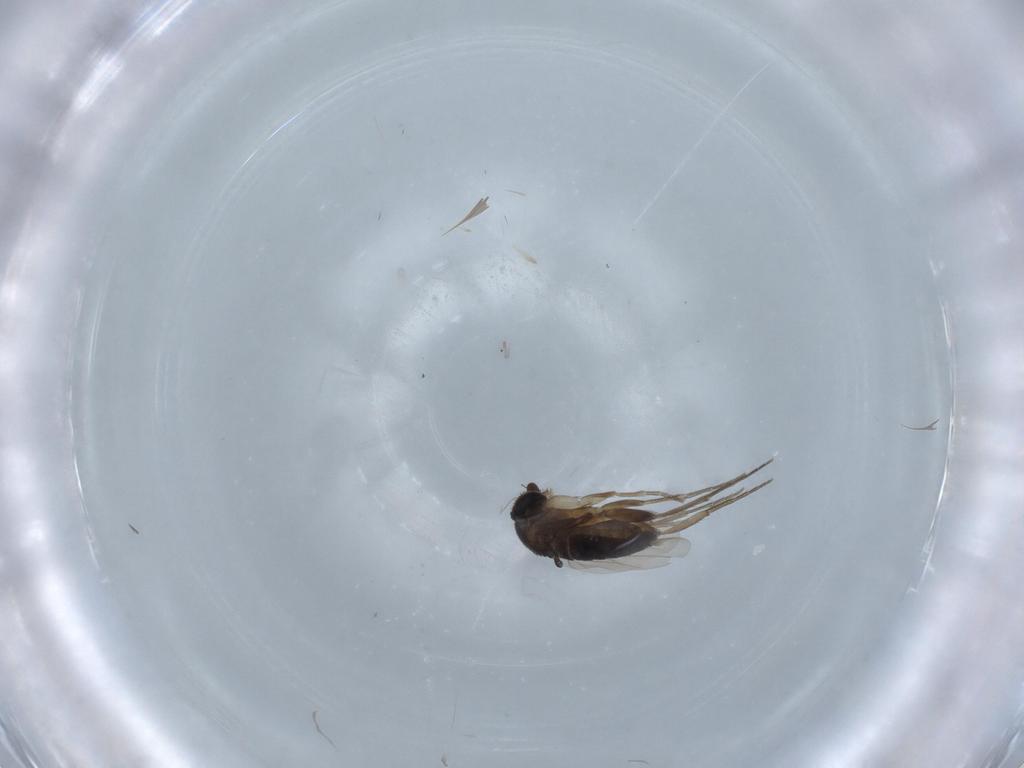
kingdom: Animalia
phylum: Arthropoda
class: Insecta
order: Diptera
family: Phoridae
